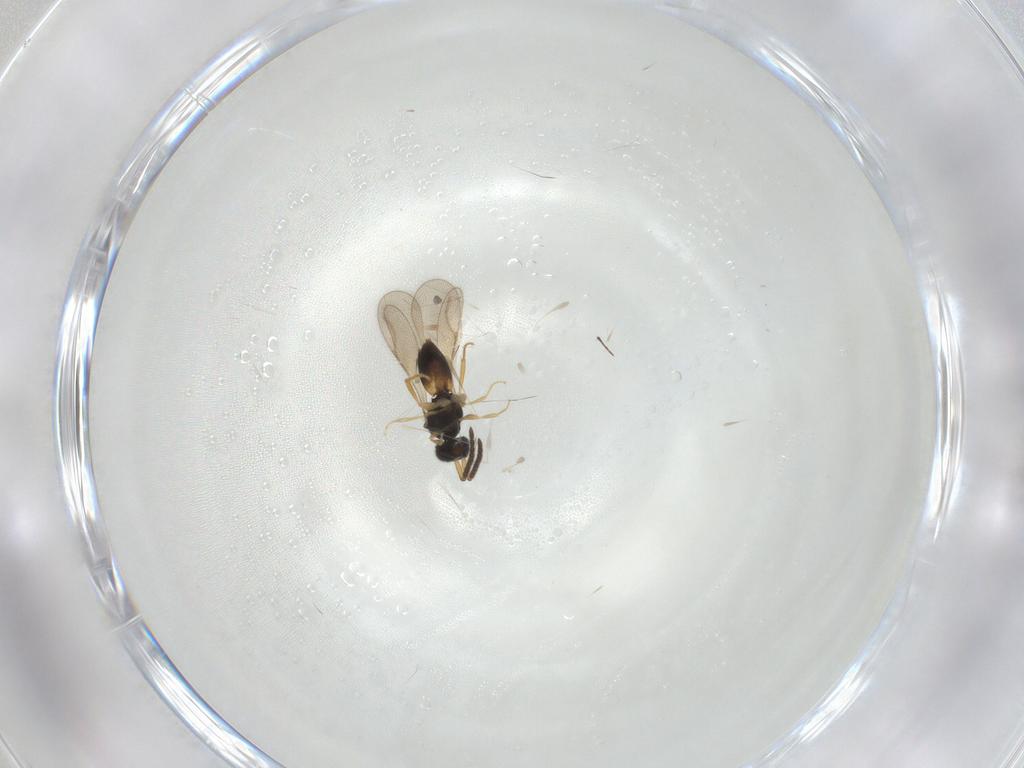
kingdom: Animalia
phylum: Arthropoda
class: Insecta
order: Hymenoptera
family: Platygastridae
